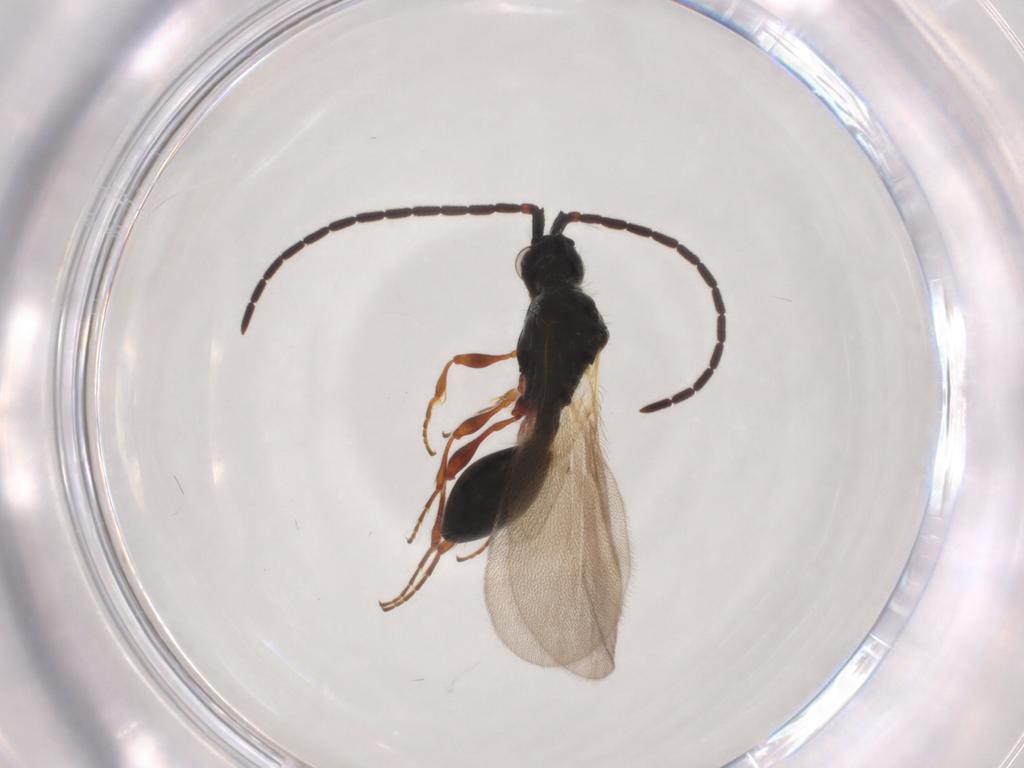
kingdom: Animalia
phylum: Arthropoda
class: Insecta
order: Hymenoptera
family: Diapriidae
